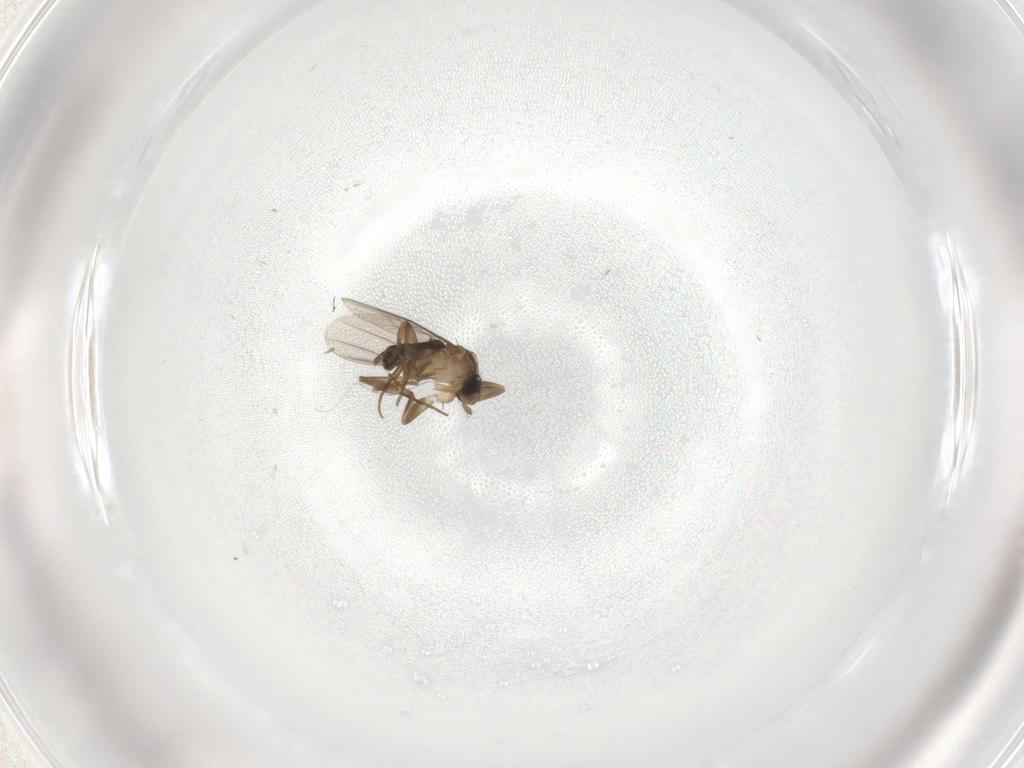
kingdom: Animalia
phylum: Arthropoda
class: Insecta
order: Diptera
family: Phoridae
